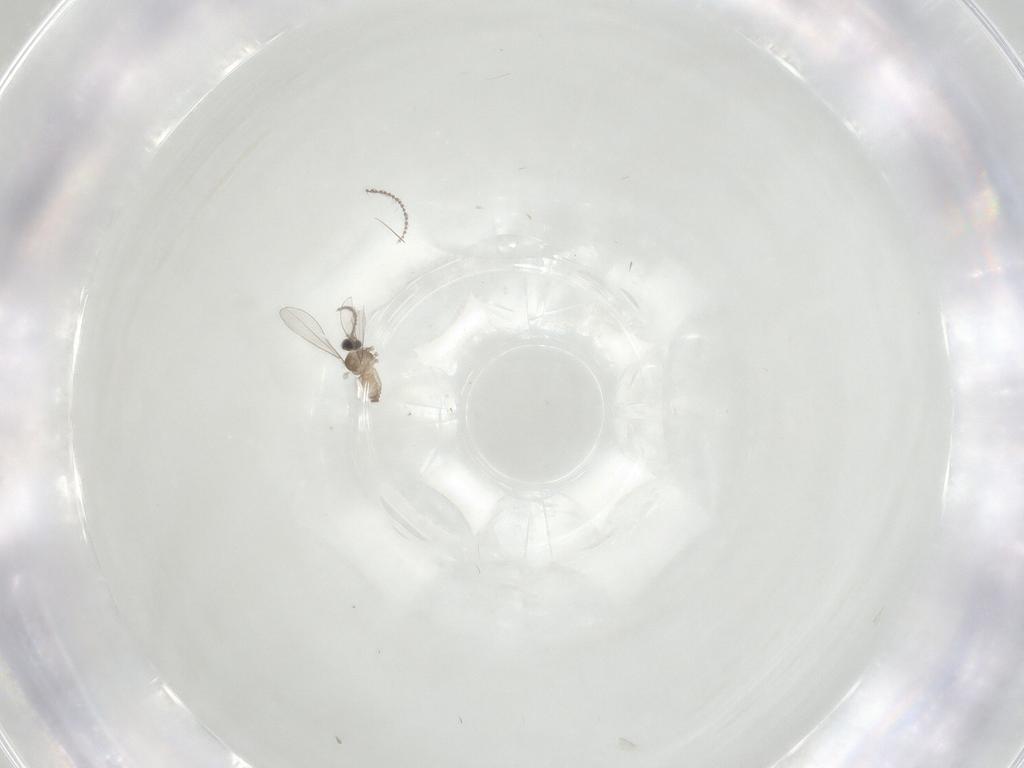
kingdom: Animalia
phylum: Arthropoda
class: Insecta
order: Diptera
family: Cecidomyiidae
